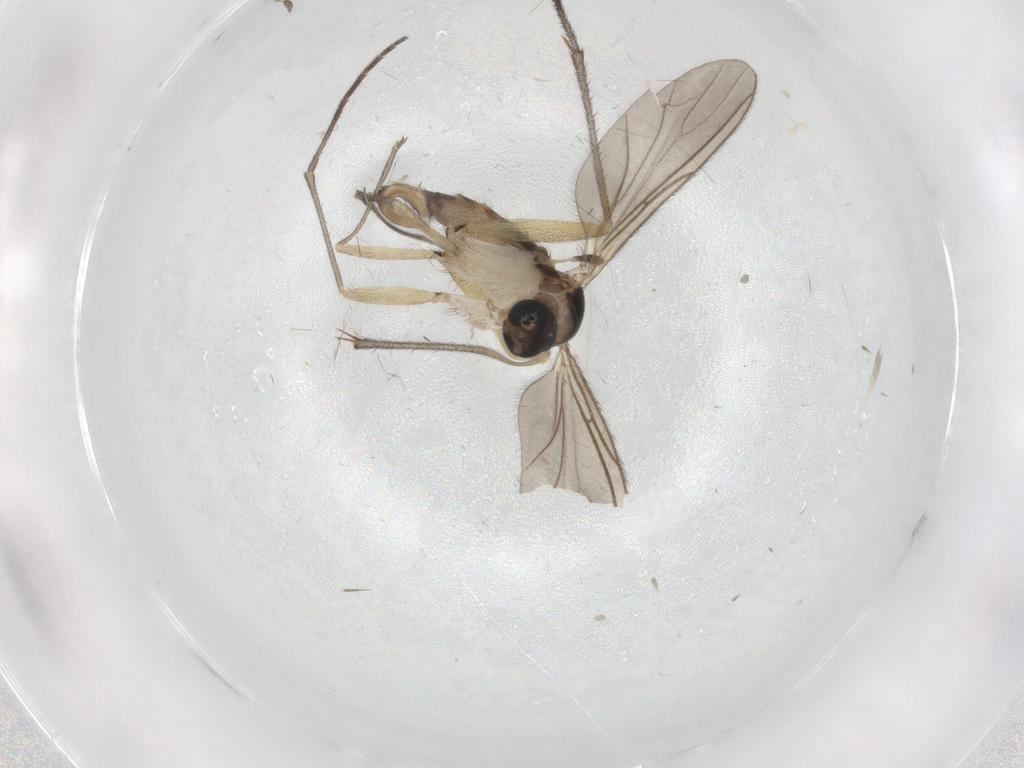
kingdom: Animalia
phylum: Arthropoda
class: Insecta
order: Diptera
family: Sciaridae
